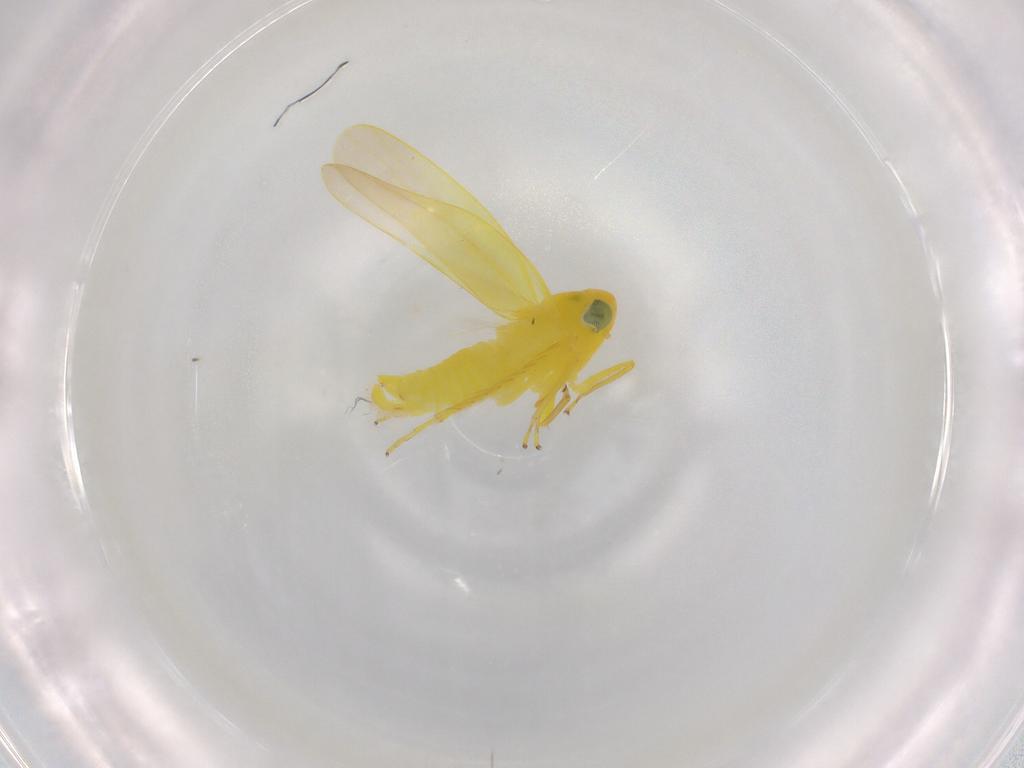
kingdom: Animalia
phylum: Arthropoda
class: Insecta
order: Hemiptera
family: Cicadellidae
